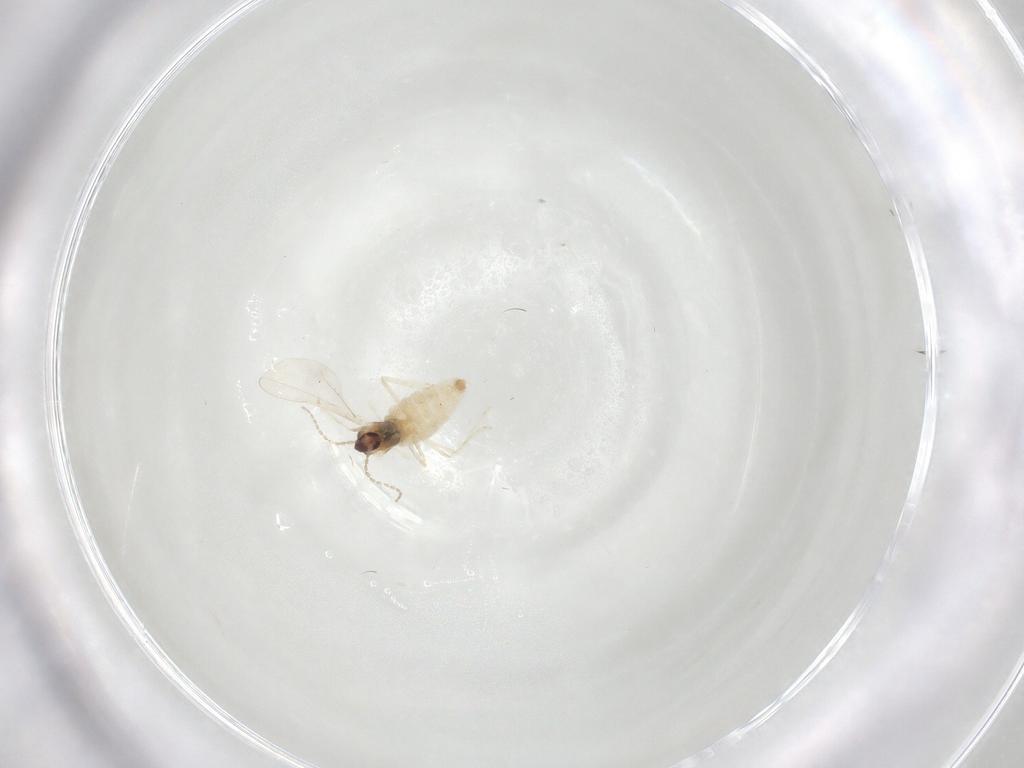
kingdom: Animalia
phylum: Arthropoda
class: Insecta
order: Diptera
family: Cecidomyiidae
